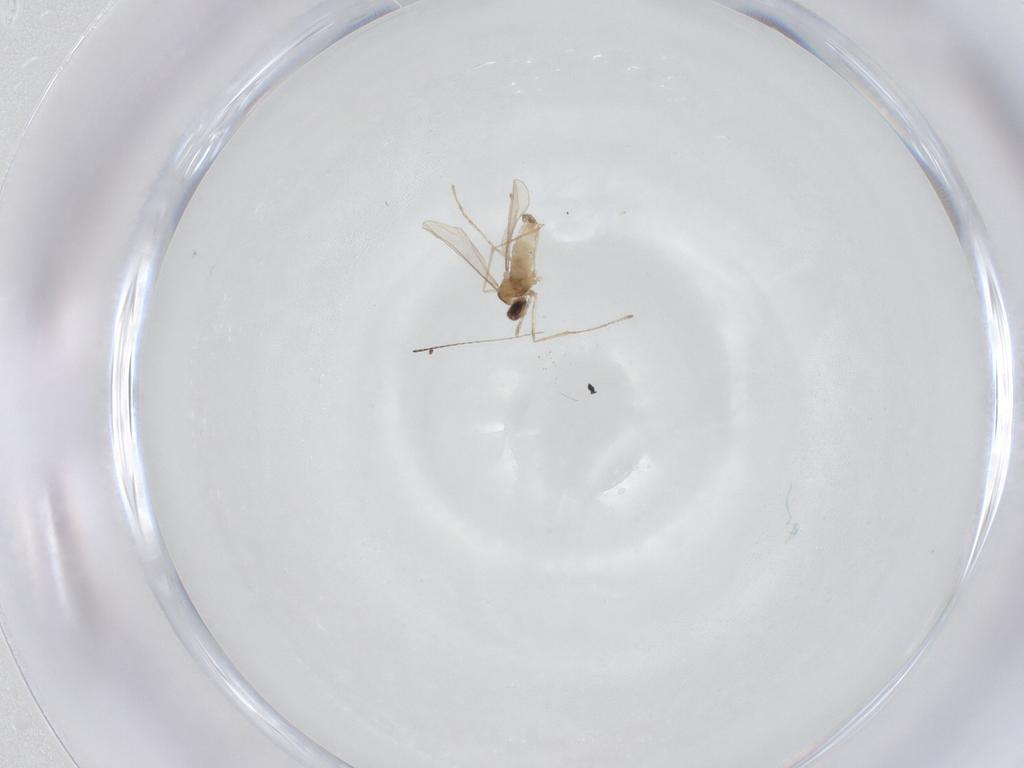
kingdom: Animalia
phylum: Arthropoda
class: Insecta
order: Diptera
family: Cecidomyiidae
